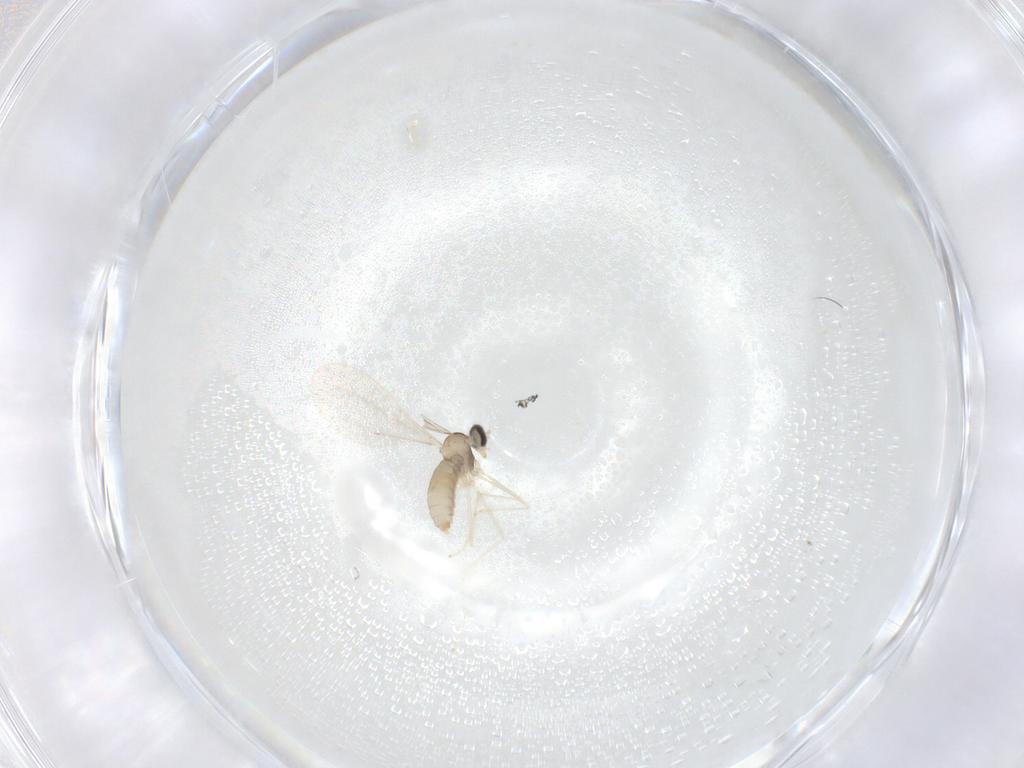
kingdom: Animalia
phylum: Arthropoda
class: Insecta
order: Diptera
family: Cecidomyiidae
